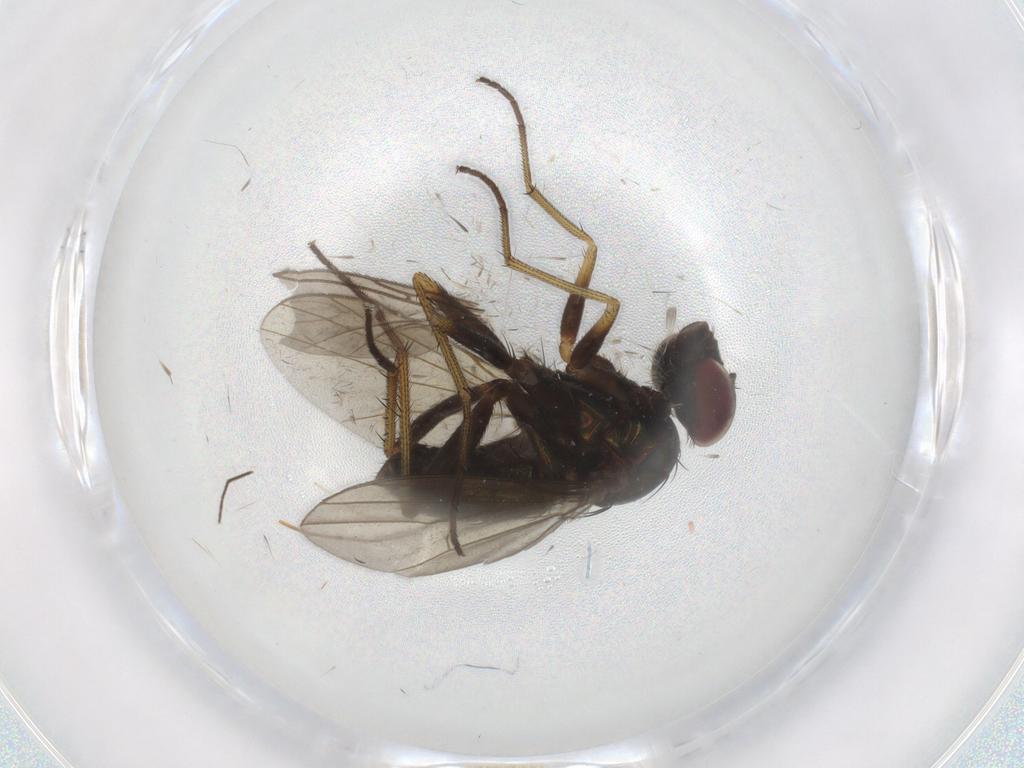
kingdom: Animalia
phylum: Arthropoda
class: Insecta
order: Diptera
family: Dolichopodidae
